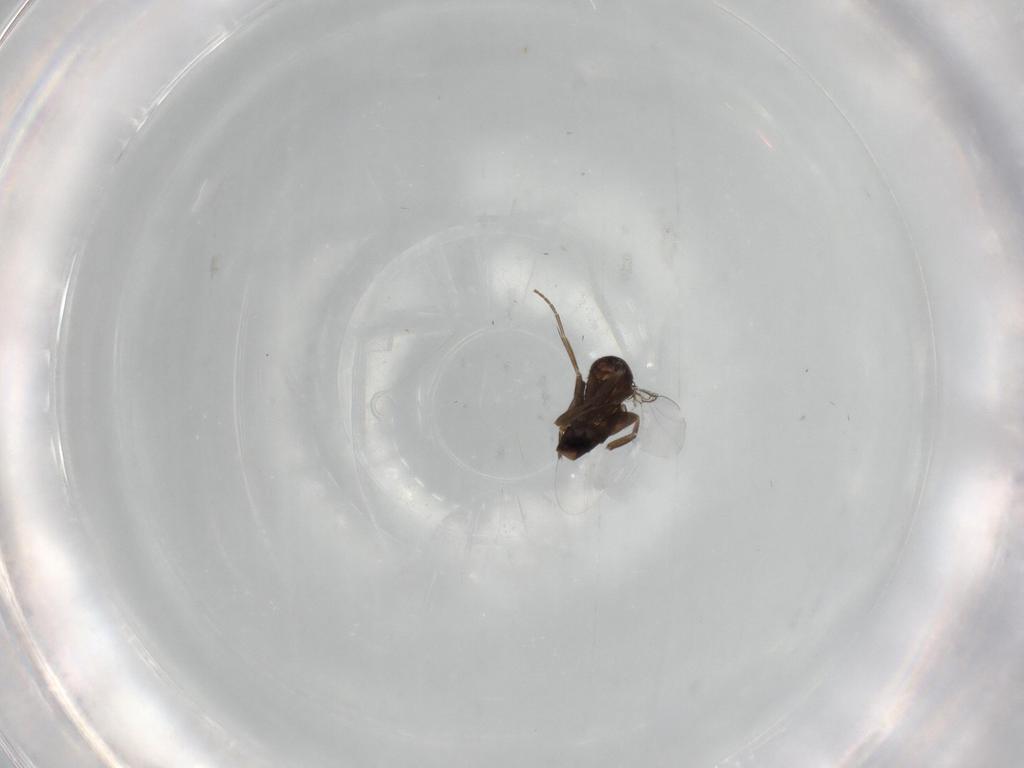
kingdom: Animalia
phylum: Arthropoda
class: Insecta
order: Diptera
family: Phoridae
